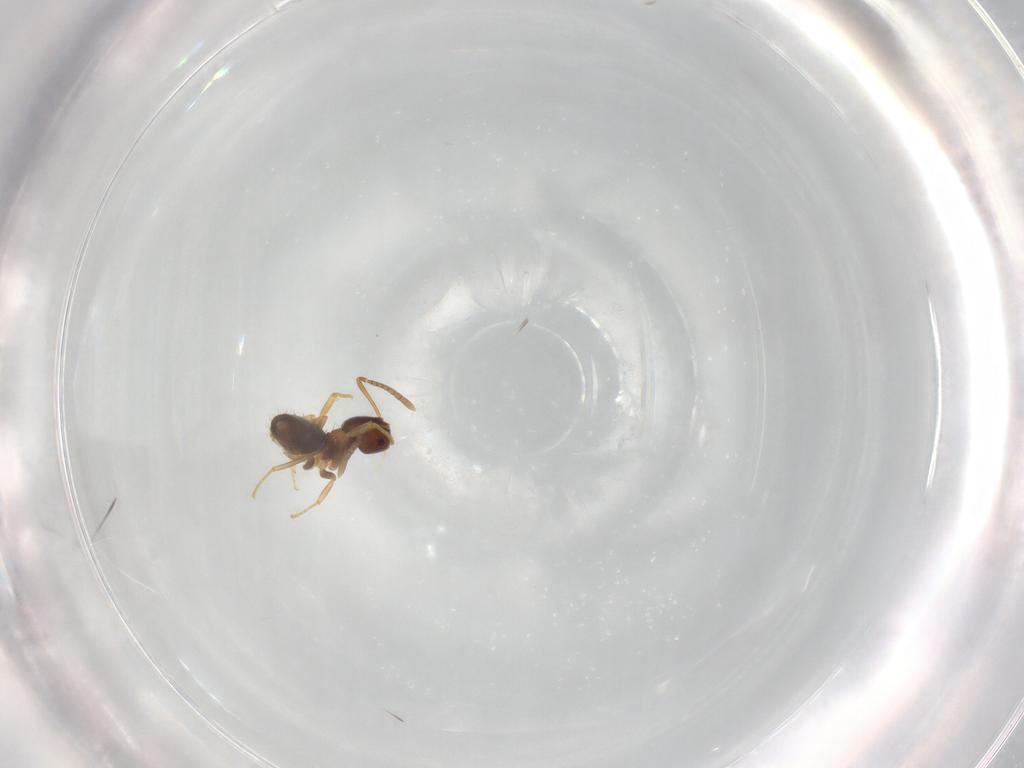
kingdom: Animalia
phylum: Arthropoda
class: Insecta
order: Hymenoptera
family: Formicidae
